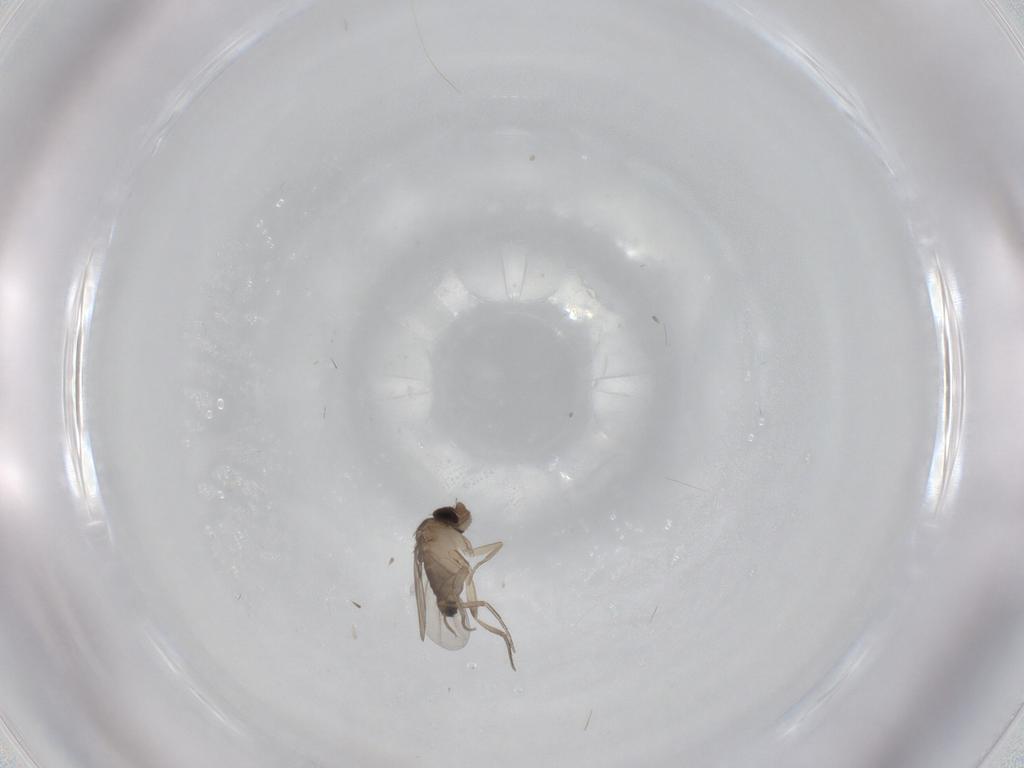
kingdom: Animalia
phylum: Arthropoda
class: Insecta
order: Diptera
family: Phoridae
